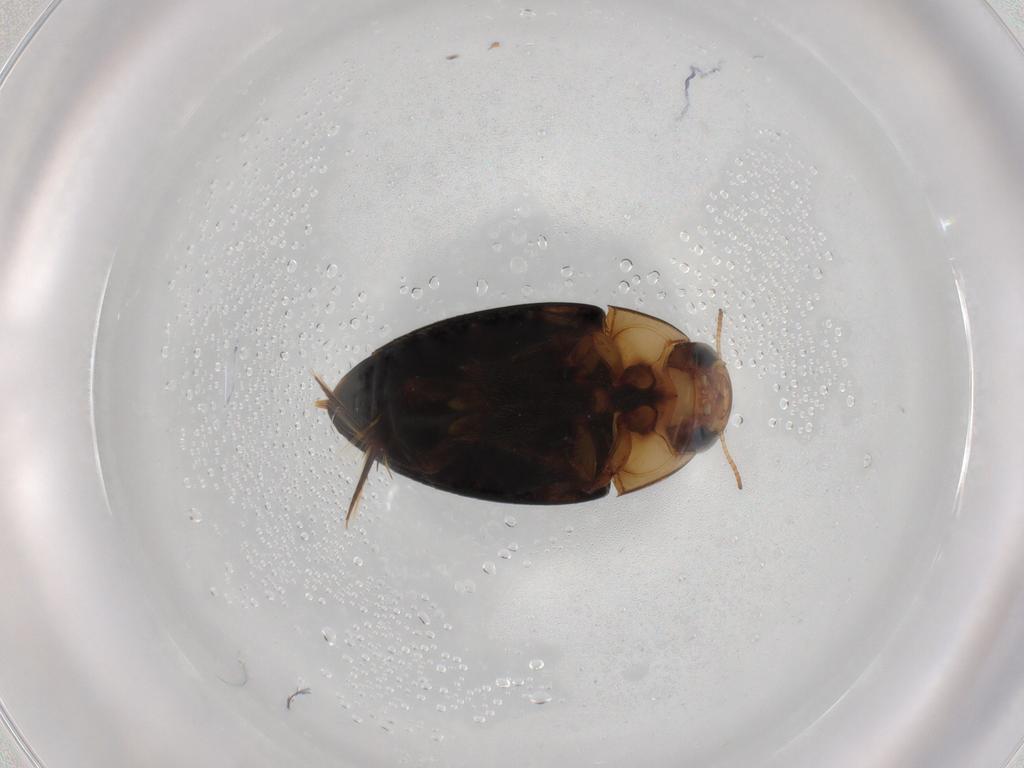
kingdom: Animalia
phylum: Arthropoda
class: Insecta
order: Coleoptera
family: Noteridae
